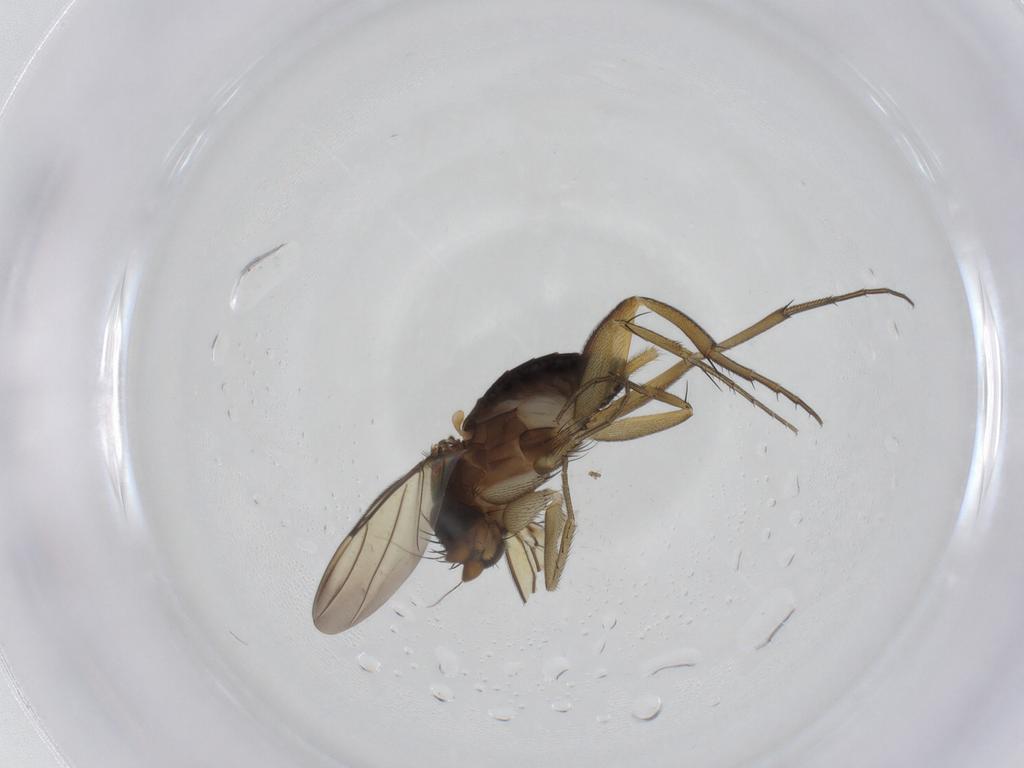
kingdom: Animalia
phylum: Arthropoda
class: Insecta
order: Diptera
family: Phoridae
